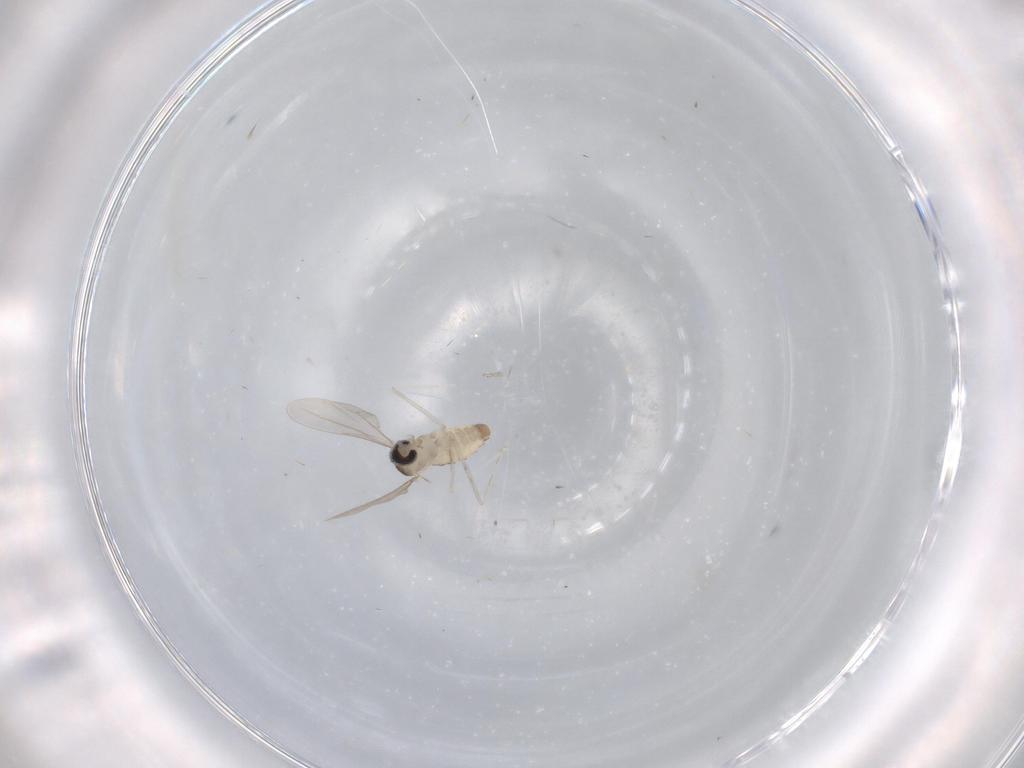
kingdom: Animalia
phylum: Arthropoda
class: Insecta
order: Diptera
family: Cecidomyiidae
